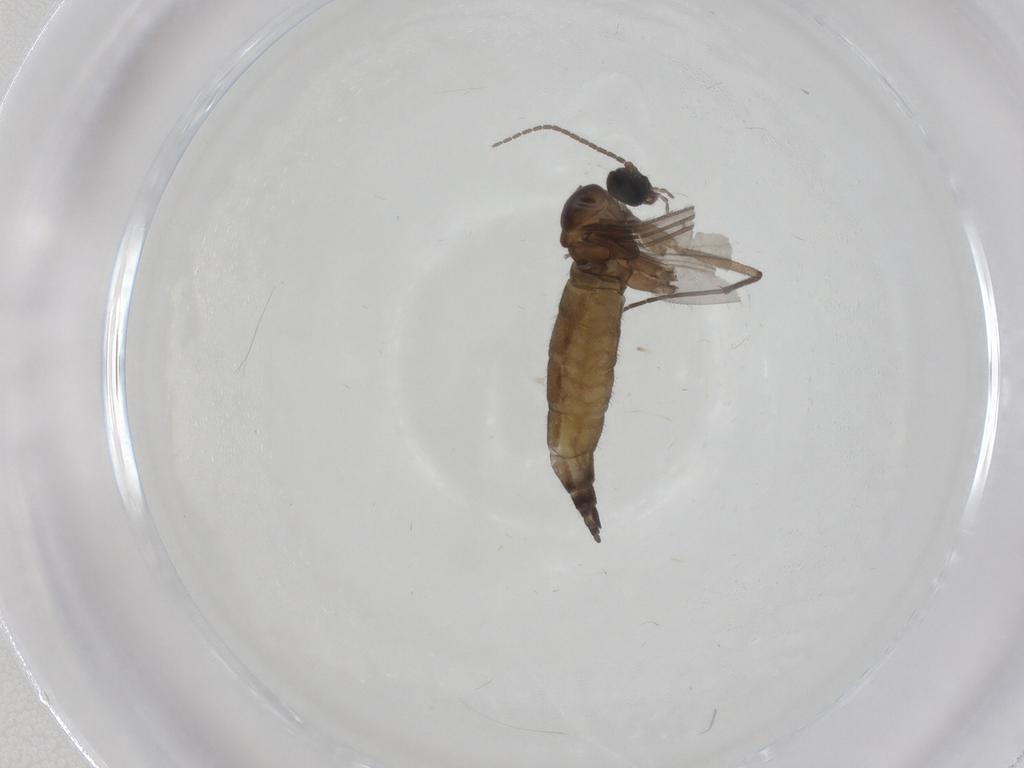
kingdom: Animalia
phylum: Arthropoda
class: Insecta
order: Diptera
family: Sciaridae
